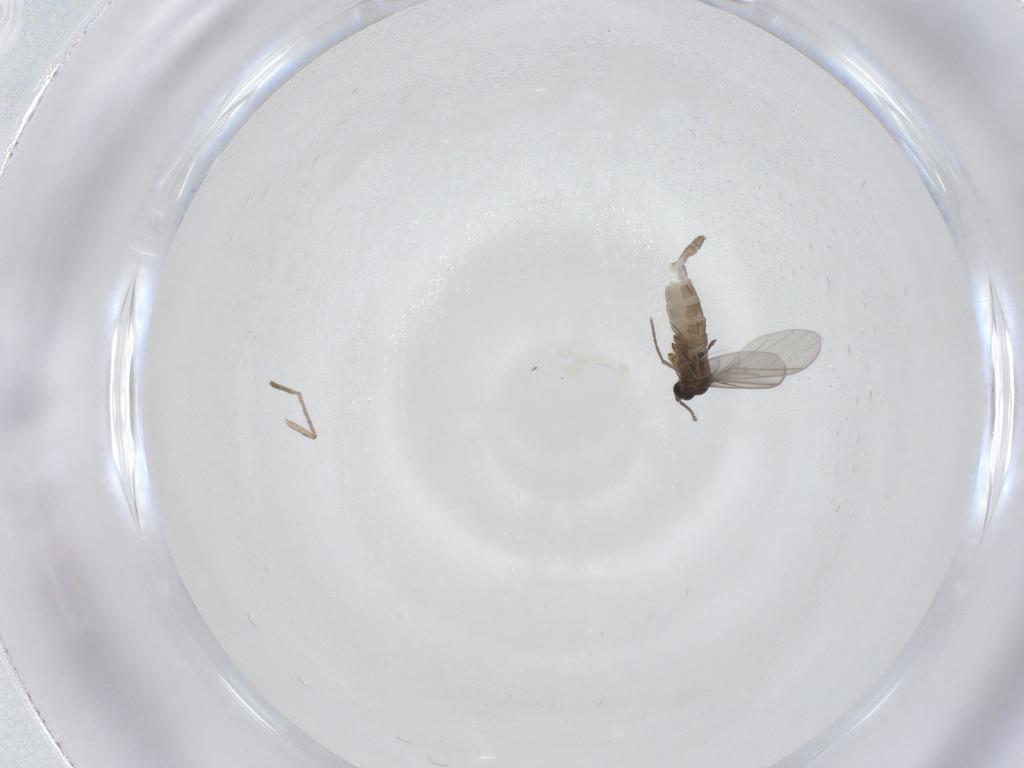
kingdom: Animalia
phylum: Arthropoda
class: Insecta
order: Diptera
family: Sciaridae
